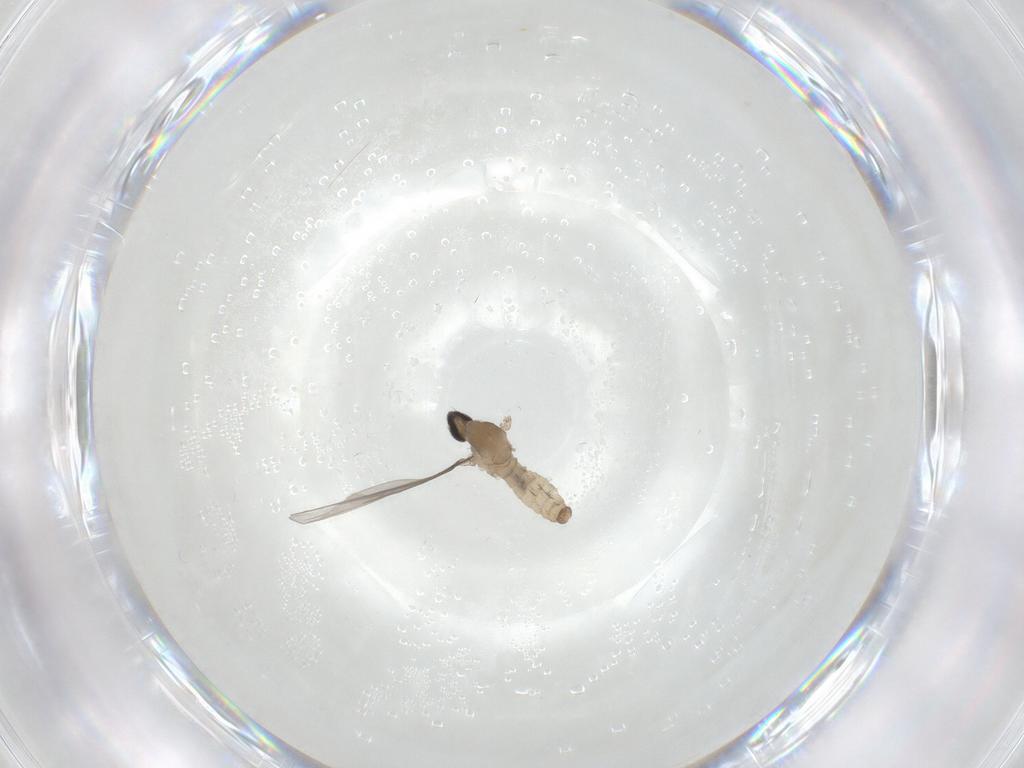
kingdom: Animalia
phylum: Arthropoda
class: Insecta
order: Diptera
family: Cecidomyiidae
